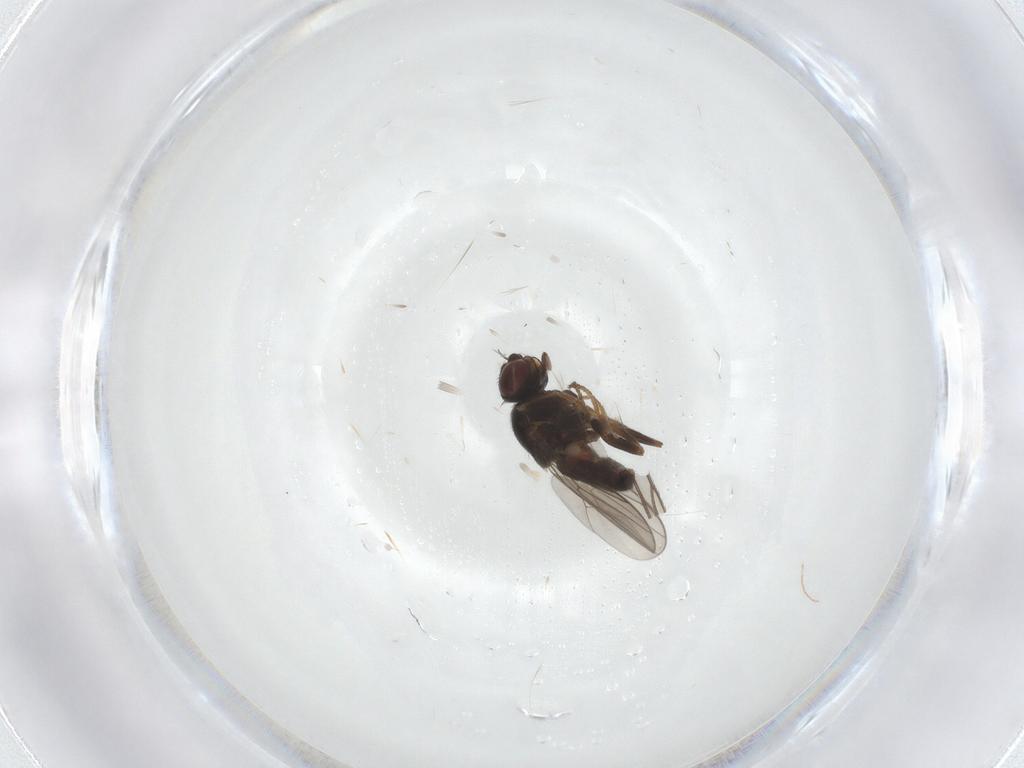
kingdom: Animalia
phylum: Arthropoda
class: Insecta
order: Diptera
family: Chloropidae
